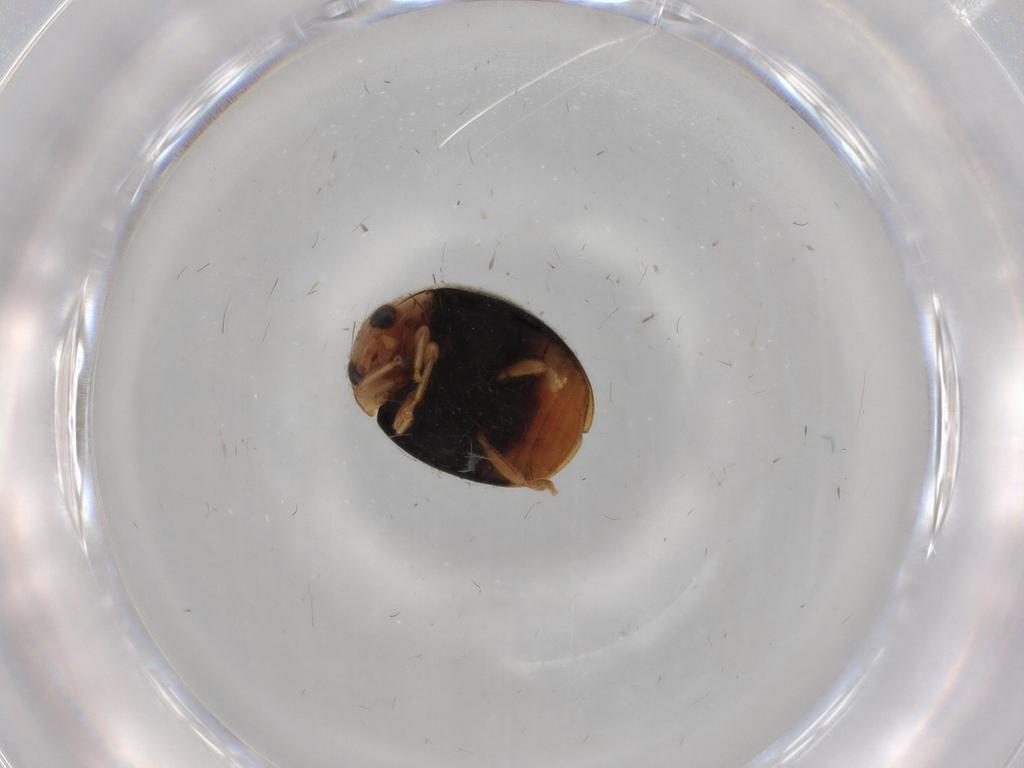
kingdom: Animalia
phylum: Arthropoda
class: Insecta
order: Coleoptera
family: Coccinellidae
